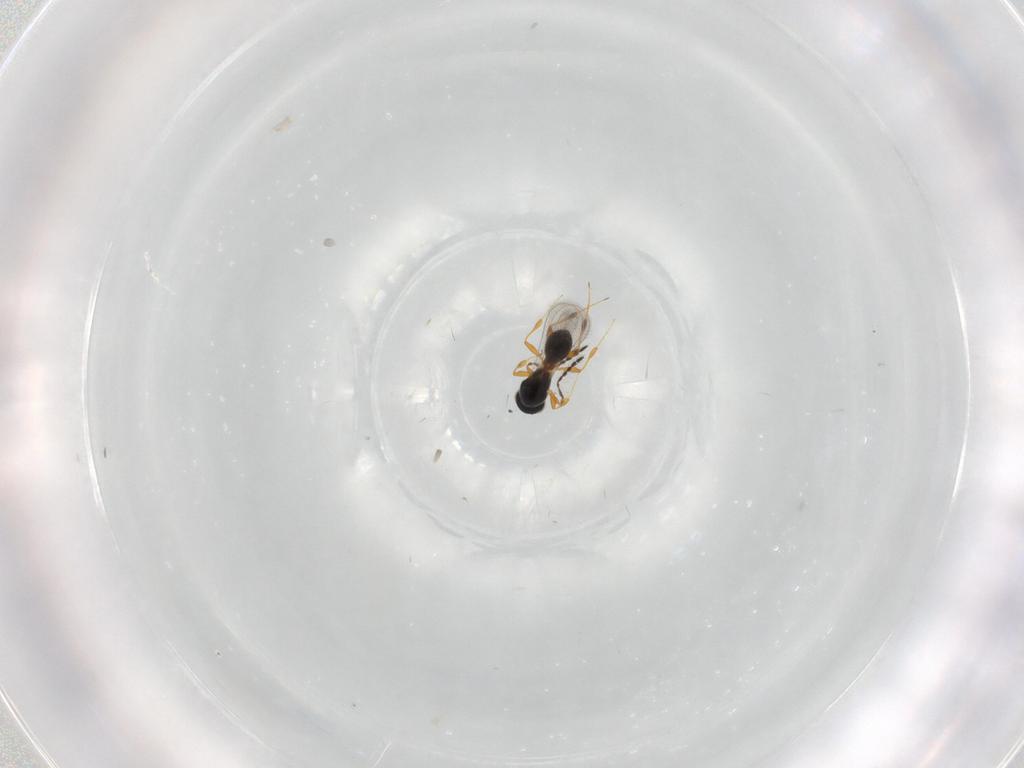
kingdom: Animalia
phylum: Arthropoda
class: Insecta
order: Hymenoptera
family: Platygastridae
